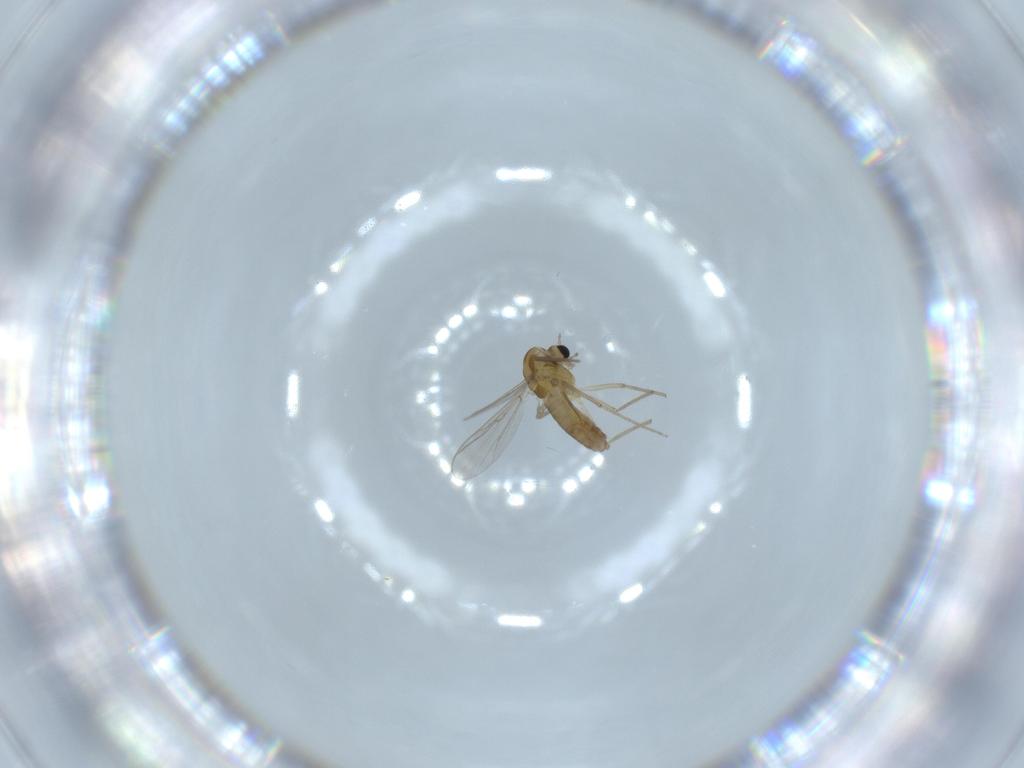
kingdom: Animalia
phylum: Arthropoda
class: Insecta
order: Diptera
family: Chironomidae
